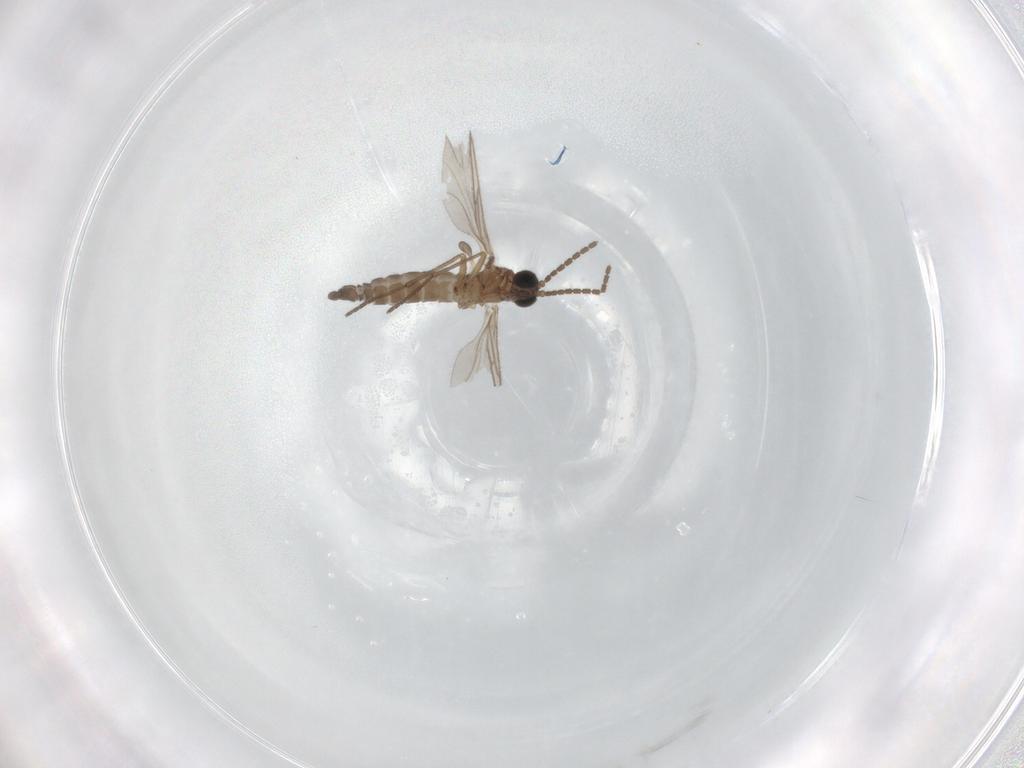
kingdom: Animalia
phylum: Arthropoda
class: Insecta
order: Diptera
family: Sciaridae
